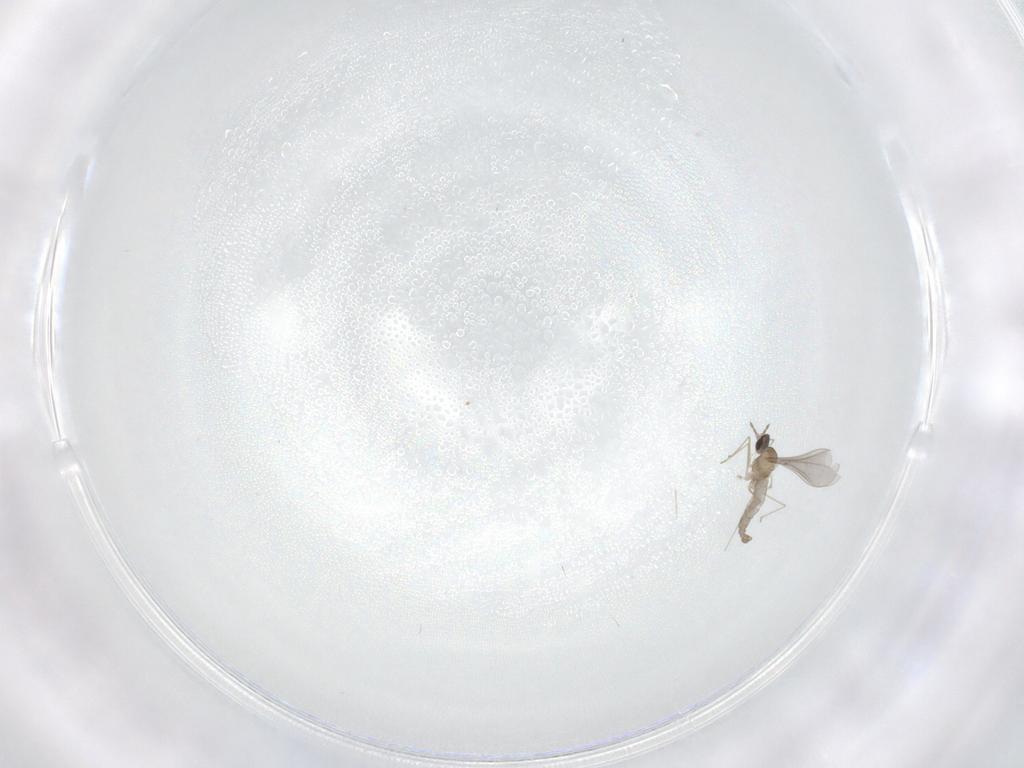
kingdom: Animalia
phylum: Arthropoda
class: Insecta
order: Diptera
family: Cecidomyiidae
